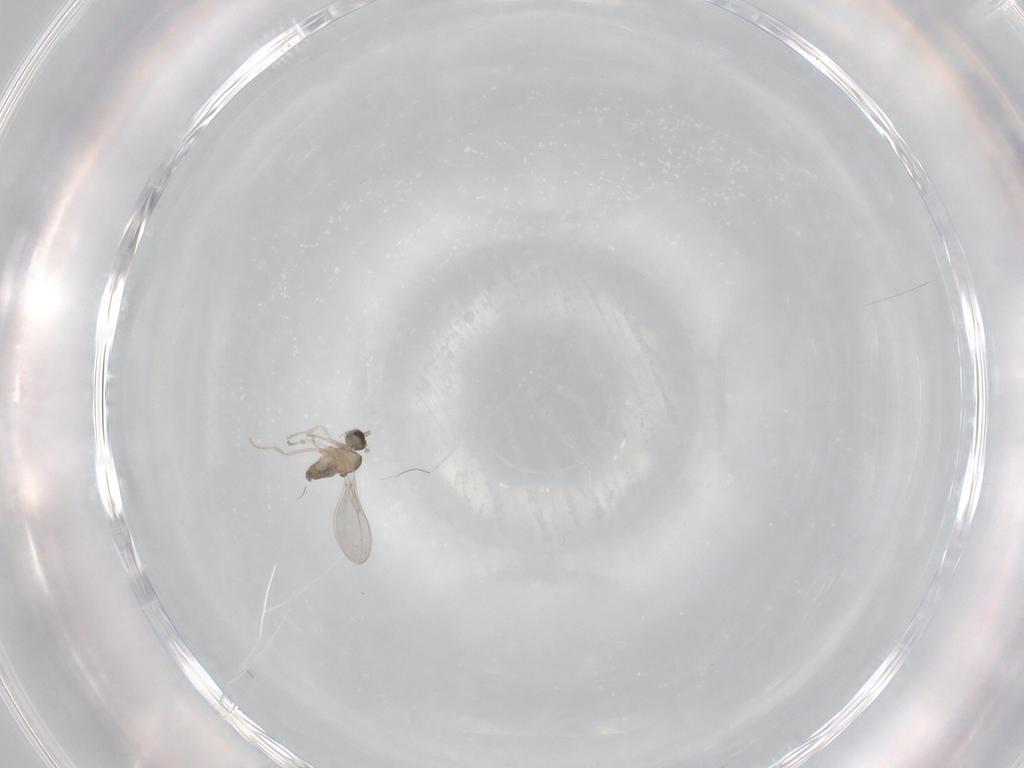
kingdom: Animalia
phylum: Arthropoda
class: Insecta
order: Diptera
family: Cecidomyiidae
